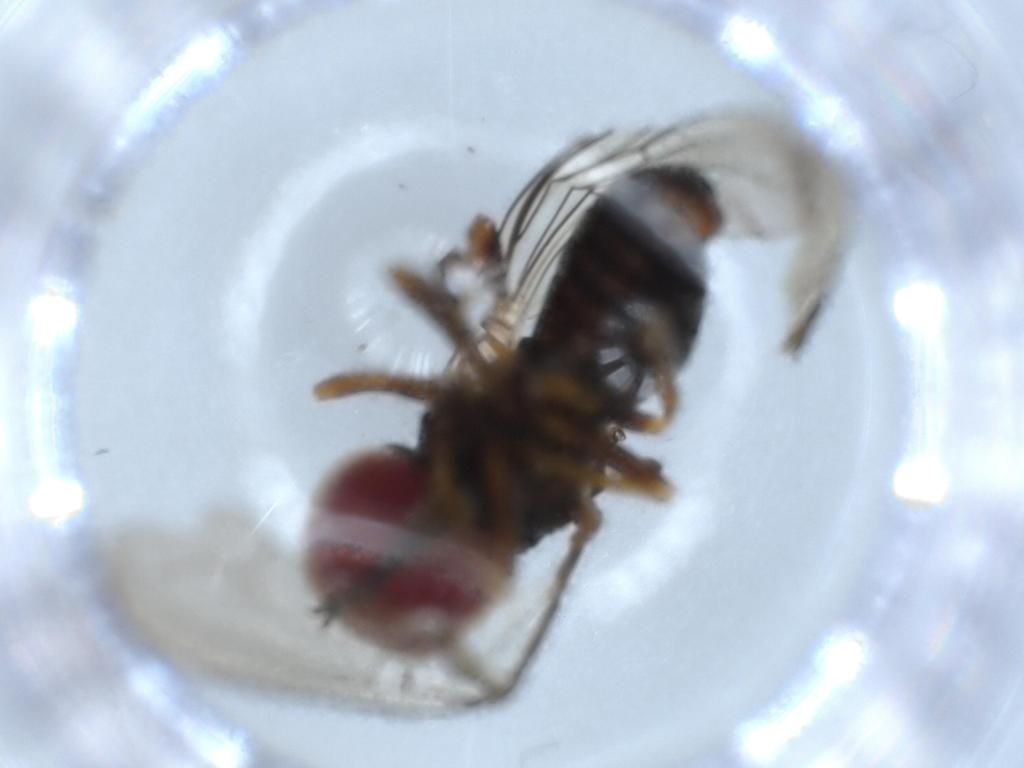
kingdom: Animalia
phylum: Arthropoda
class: Insecta
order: Diptera
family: Pipunculidae
